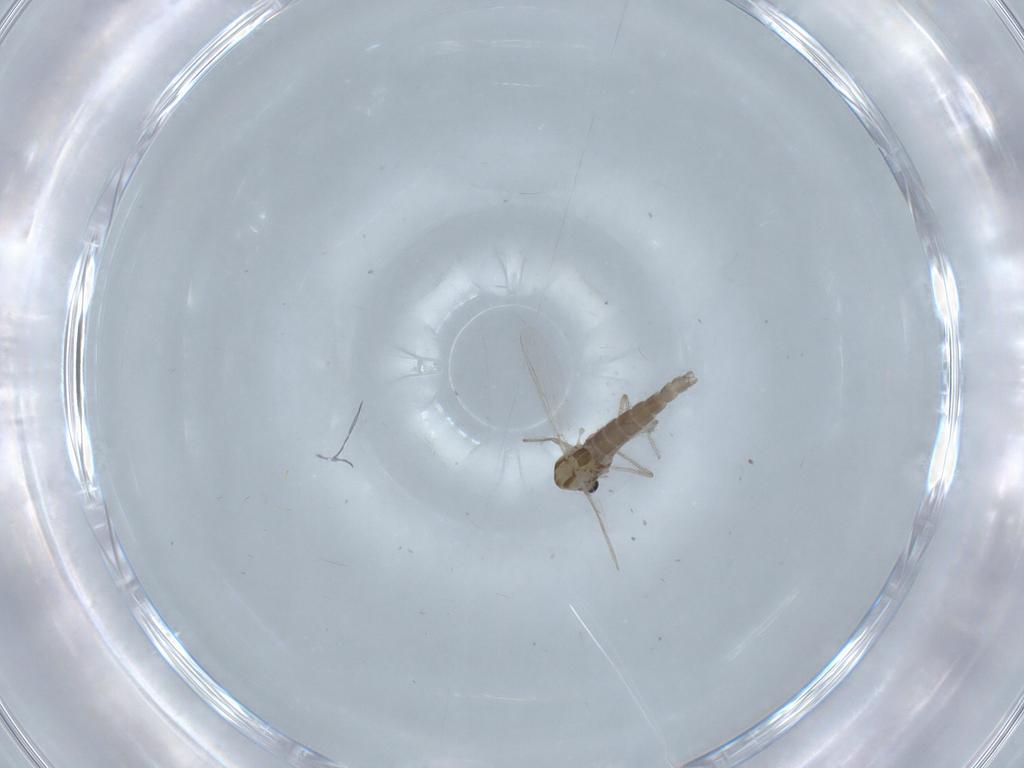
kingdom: Animalia
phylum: Arthropoda
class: Insecta
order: Diptera
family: Chironomidae
